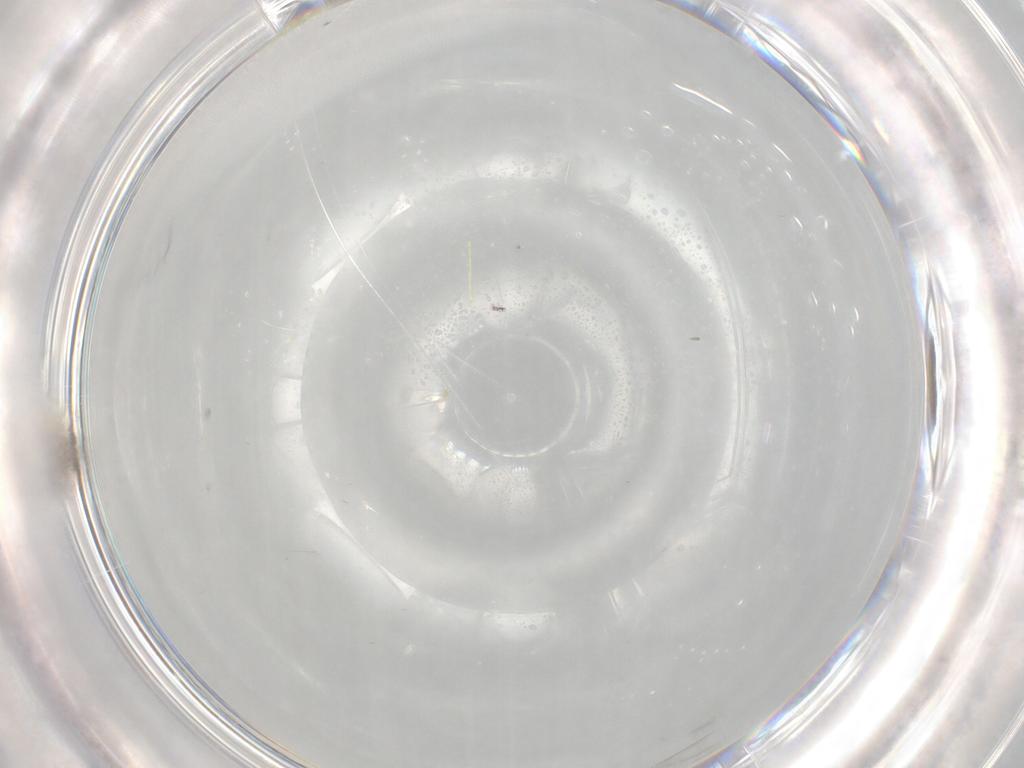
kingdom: Animalia
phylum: Arthropoda
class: Insecta
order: Diptera
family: Cecidomyiidae
